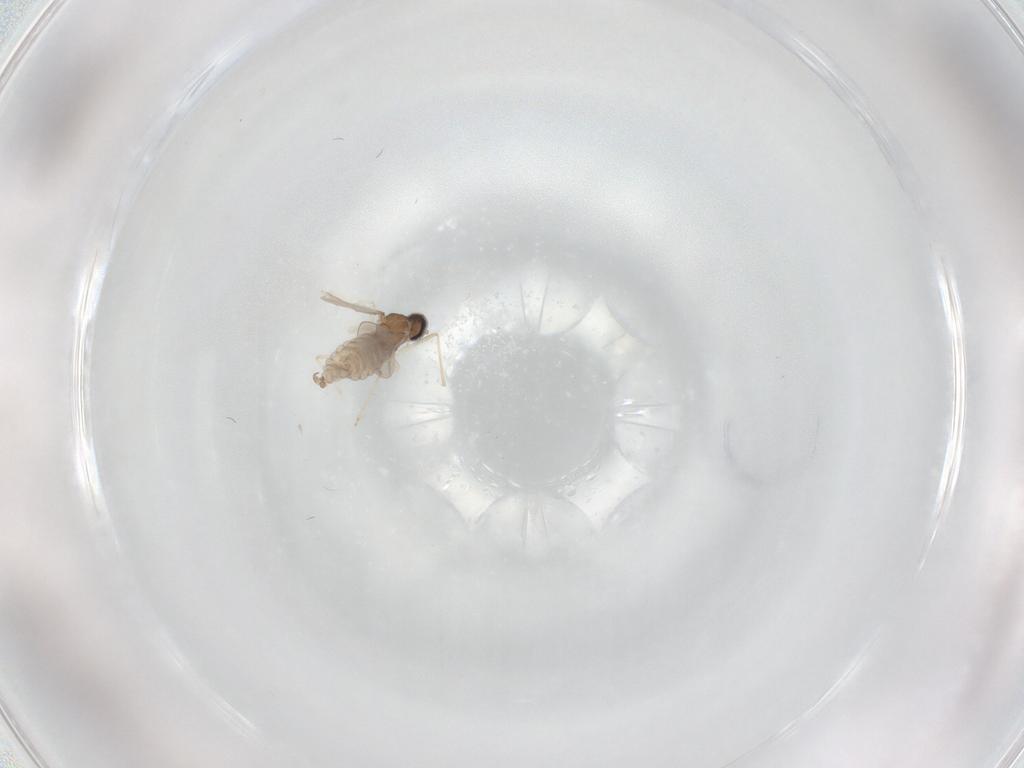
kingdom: Animalia
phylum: Arthropoda
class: Insecta
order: Diptera
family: Cecidomyiidae
